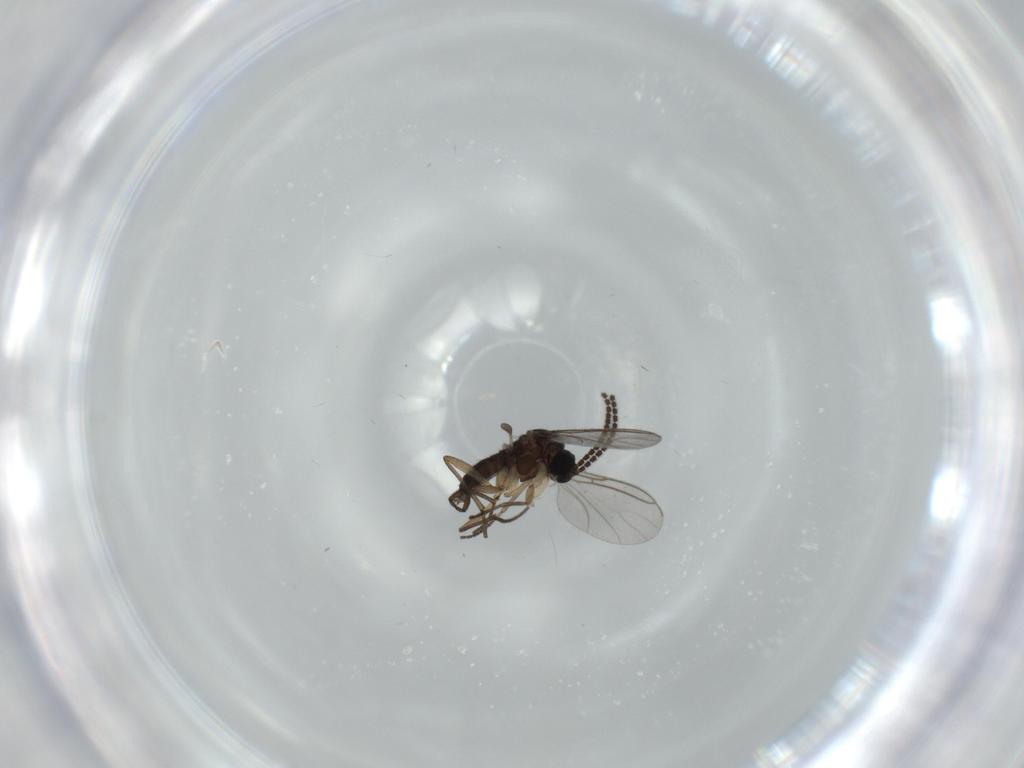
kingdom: Animalia
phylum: Arthropoda
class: Insecta
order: Diptera
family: Sciaridae
